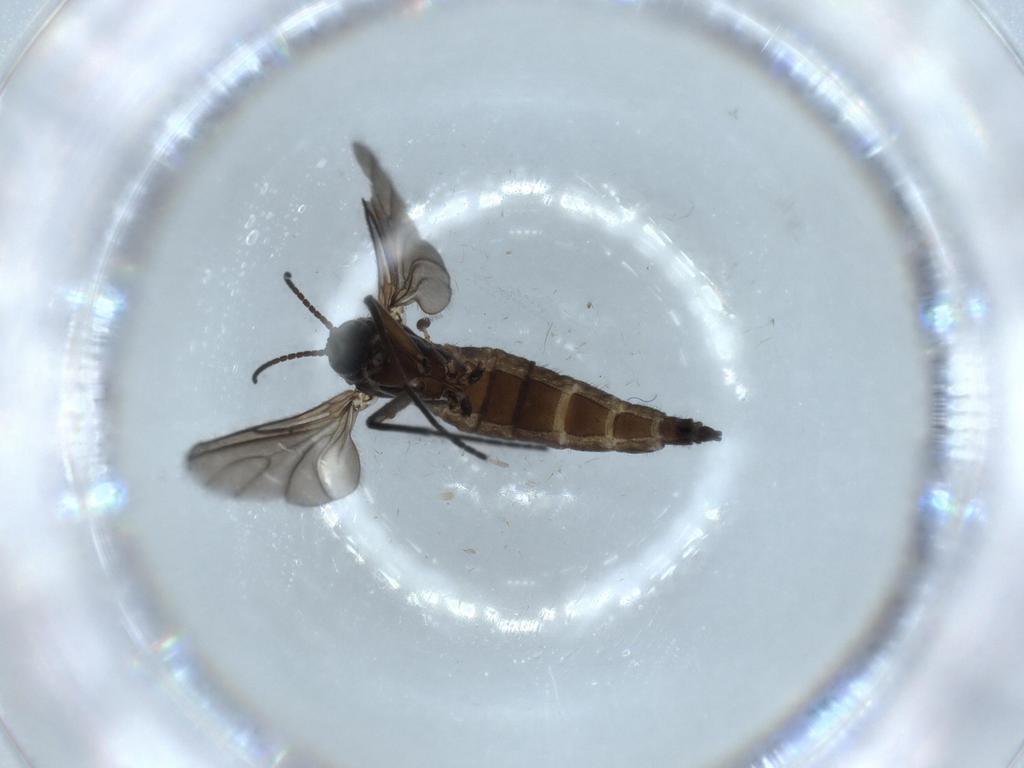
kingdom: Animalia
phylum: Arthropoda
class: Insecta
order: Diptera
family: Sciaridae
